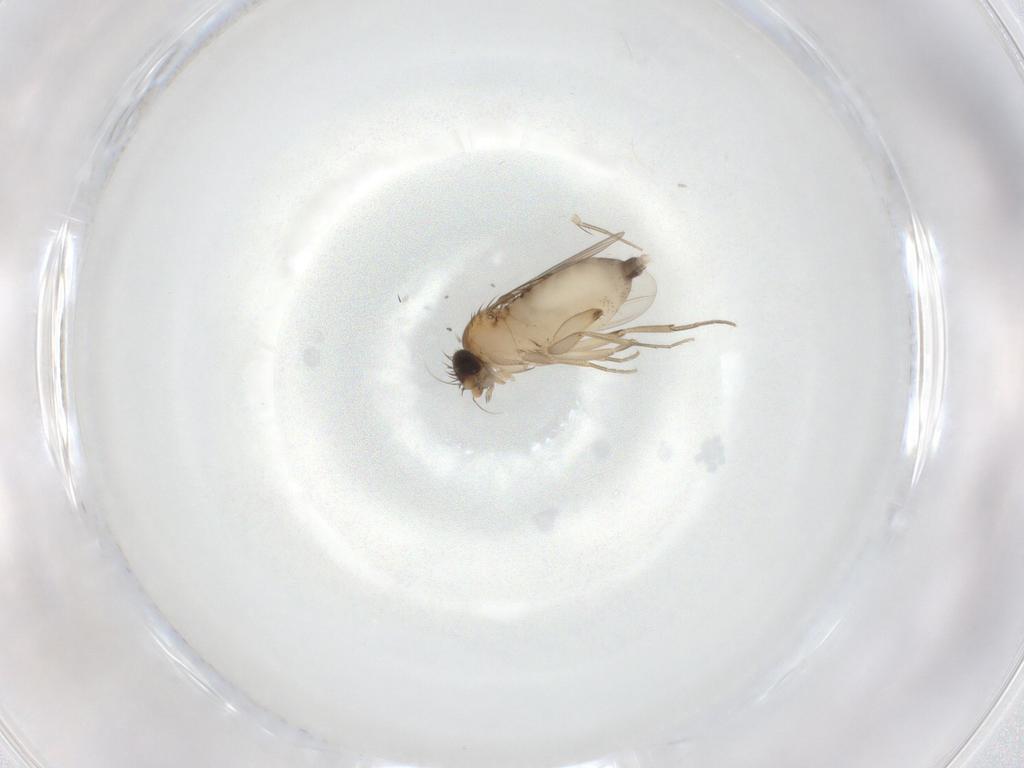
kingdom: Animalia
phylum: Arthropoda
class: Insecta
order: Diptera
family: Phoridae
